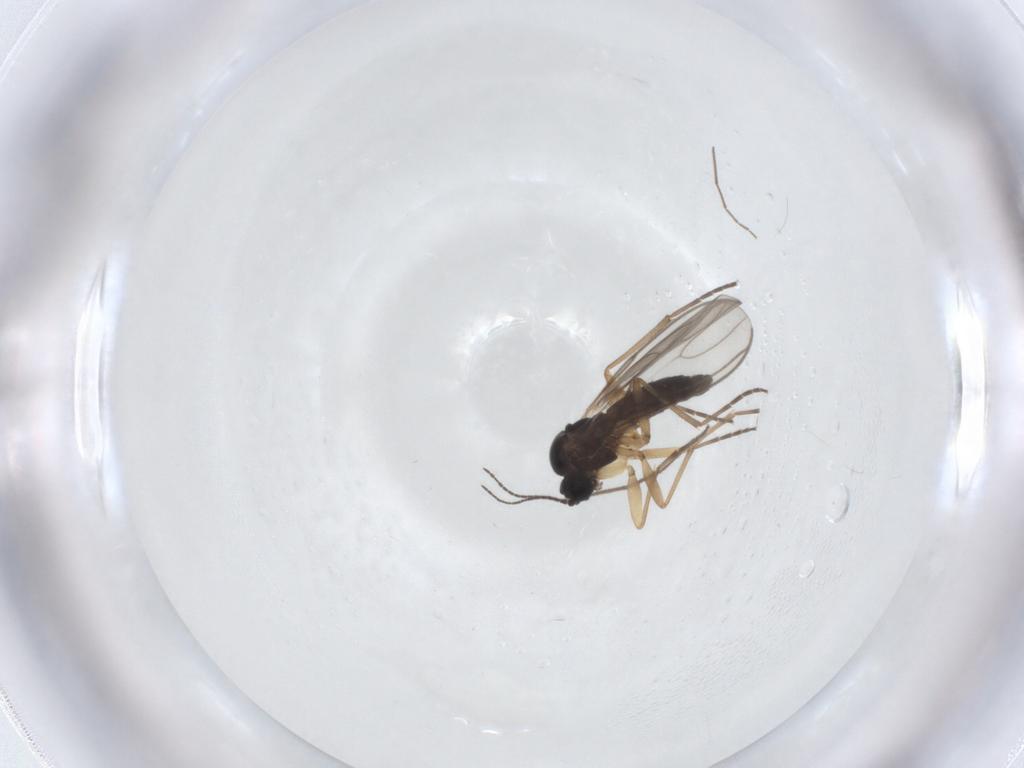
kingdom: Animalia
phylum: Arthropoda
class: Insecta
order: Diptera
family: Chironomidae
